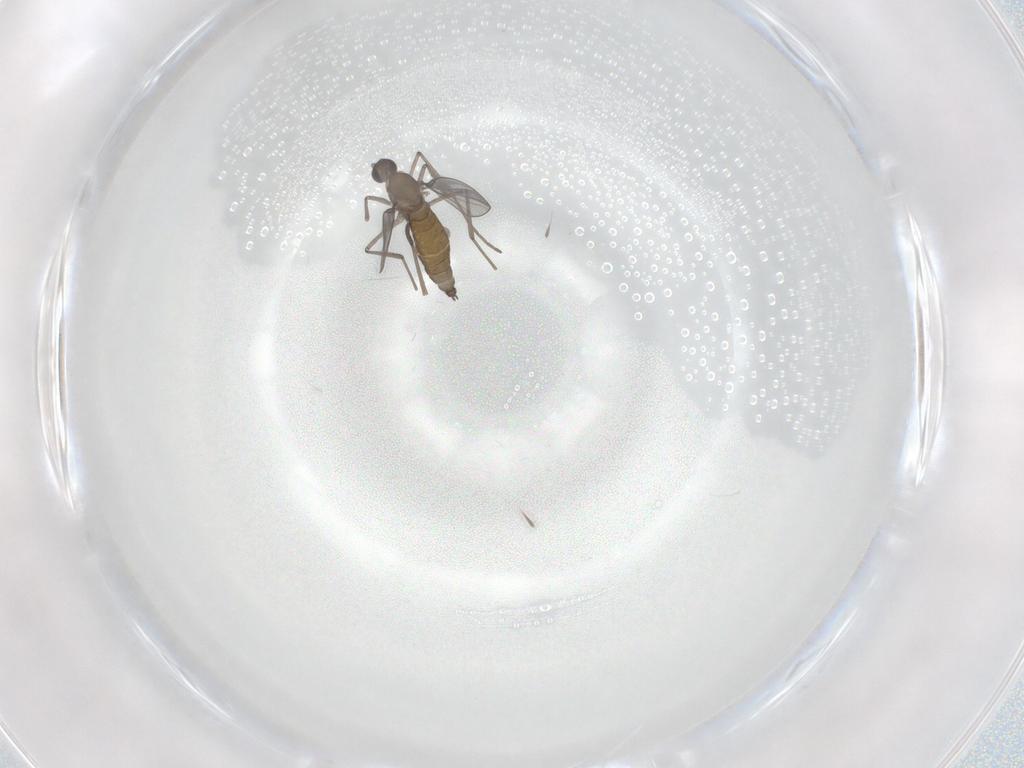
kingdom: Animalia
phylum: Arthropoda
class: Insecta
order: Diptera
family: Cecidomyiidae
